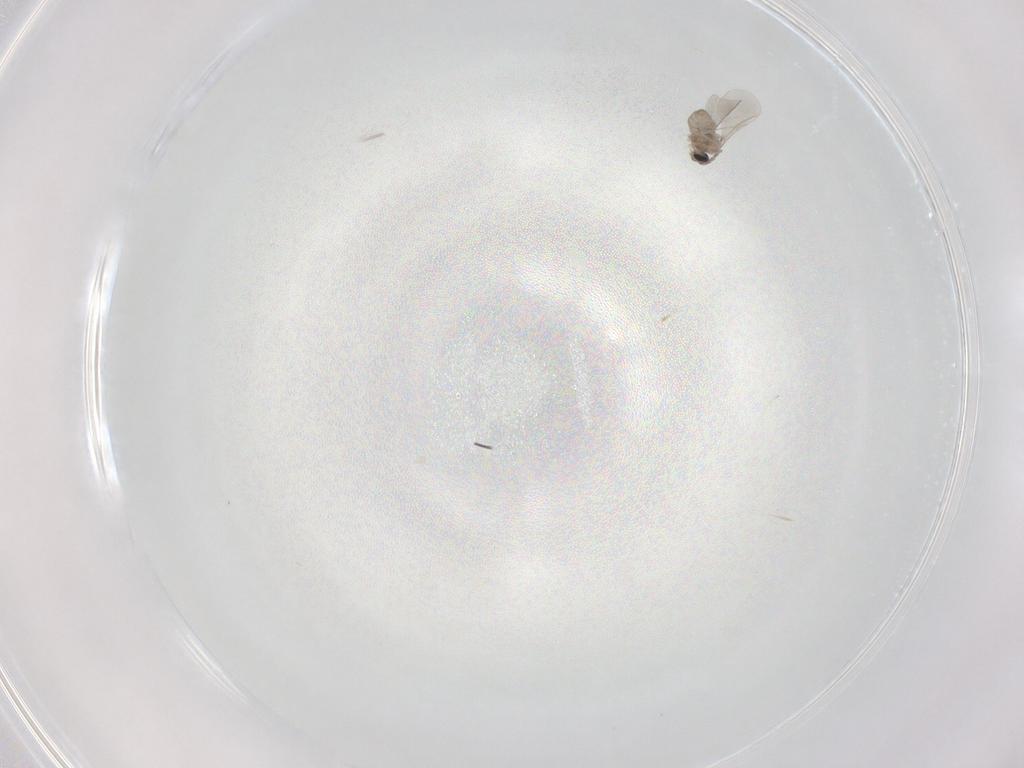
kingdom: Animalia
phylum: Arthropoda
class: Insecta
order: Diptera
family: Cecidomyiidae
